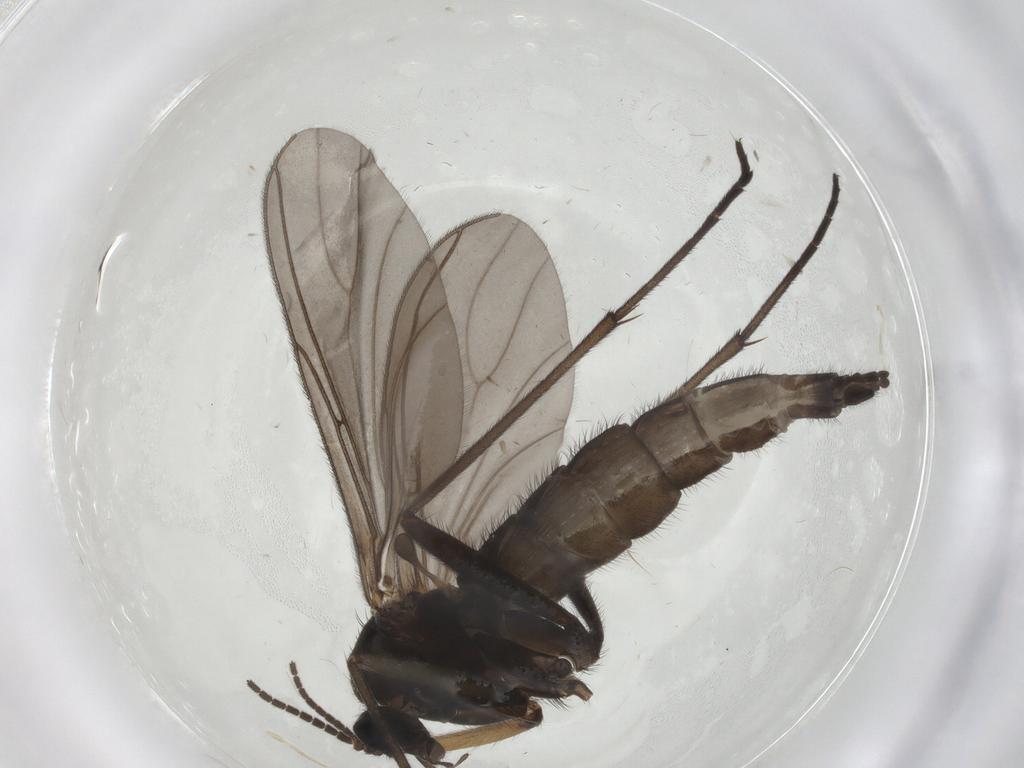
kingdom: Animalia
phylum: Arthropoda
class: Insecta
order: Diptera
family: Sciaridae
